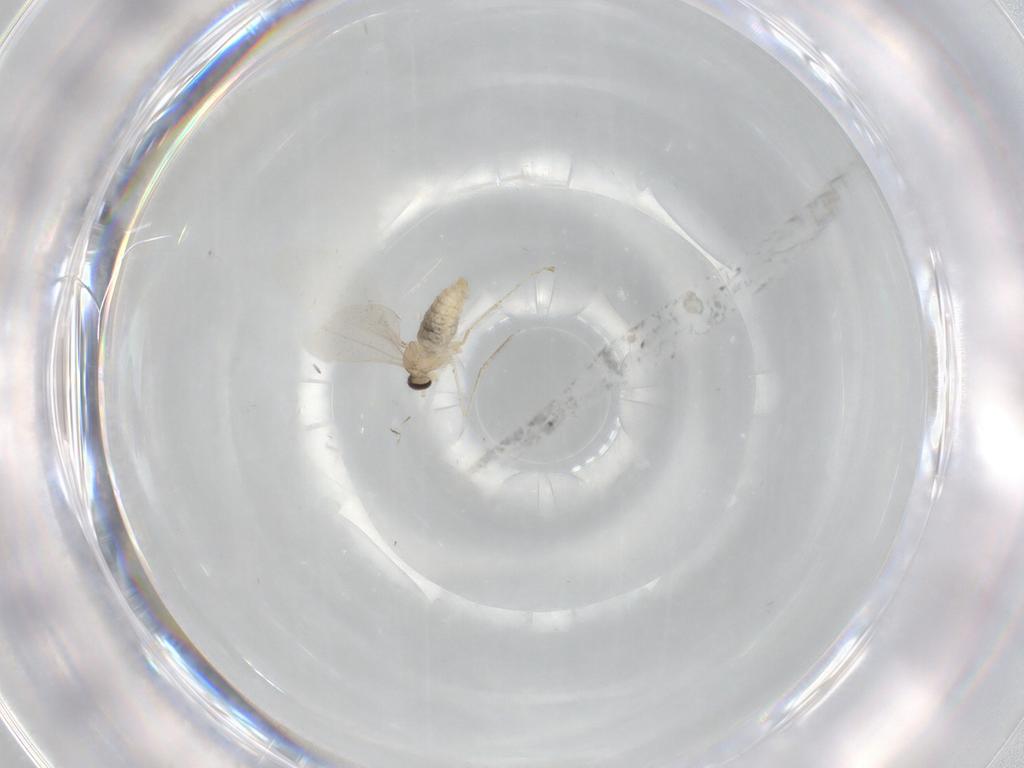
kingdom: Animalia
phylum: Arthropoda
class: Insecta
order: Diptera
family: Cecidomyiidae
